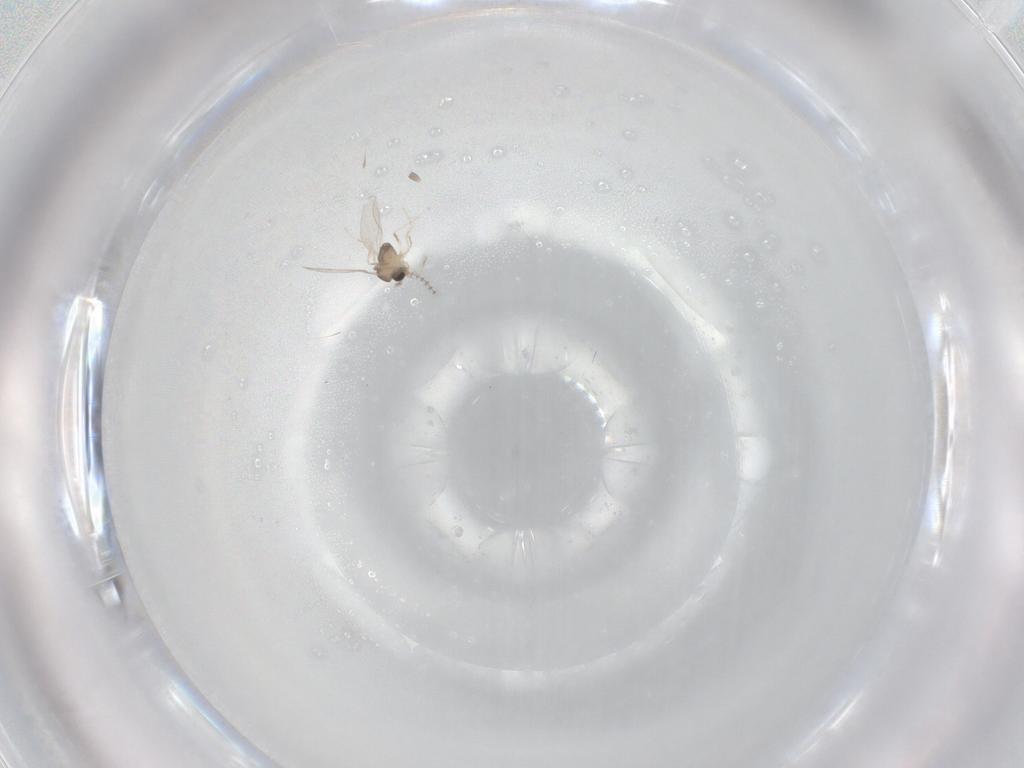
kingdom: Animalia
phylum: Arthropoda
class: Insecta
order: Diptera
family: Cecidomyiidae
